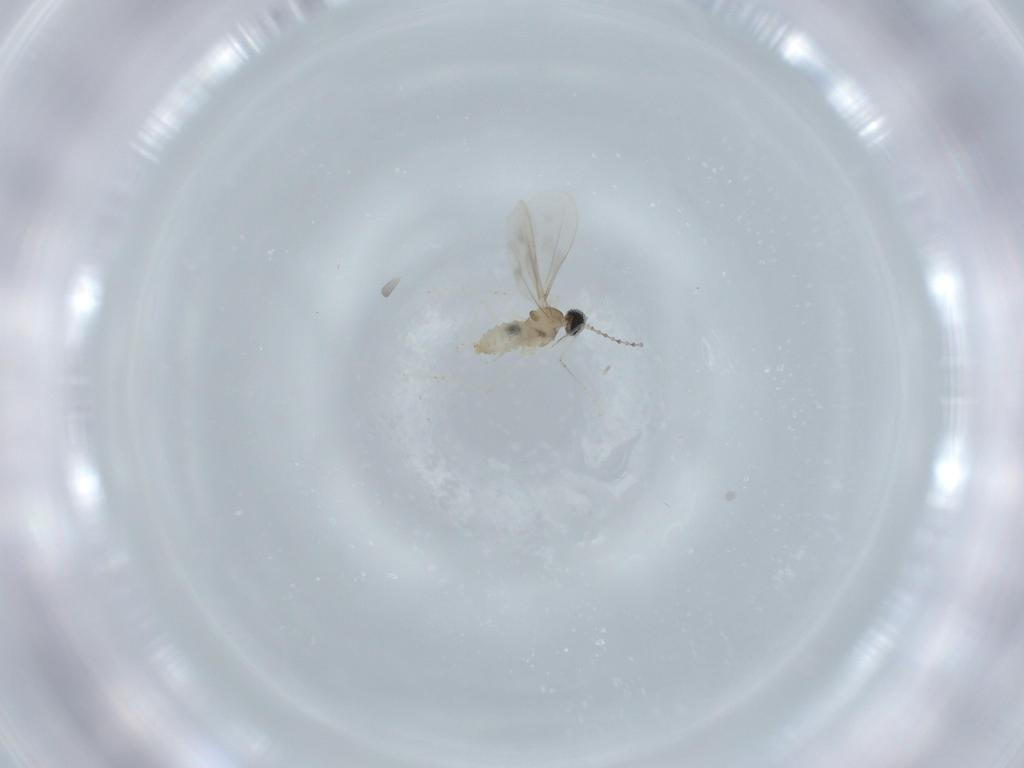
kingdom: Animalia
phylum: Arthropoda
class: Insecta
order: Diptera
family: Cecidomyiidae
